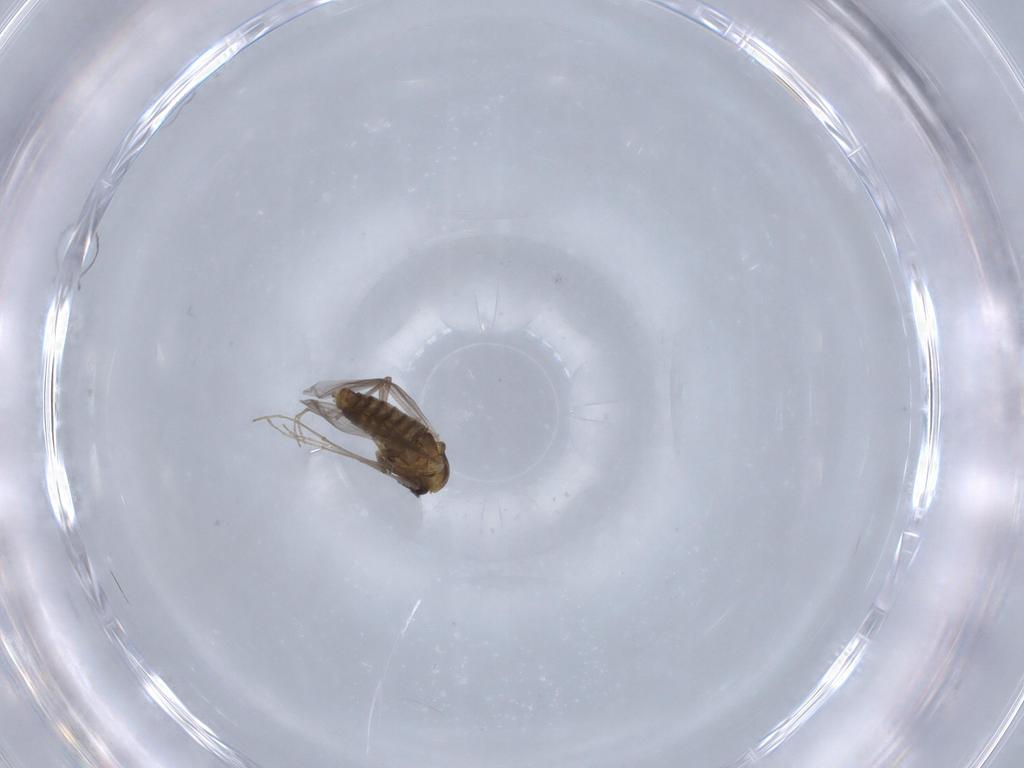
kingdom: Animalia
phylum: Arthropoda
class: Insecta
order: Diptera
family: Chironomidae
